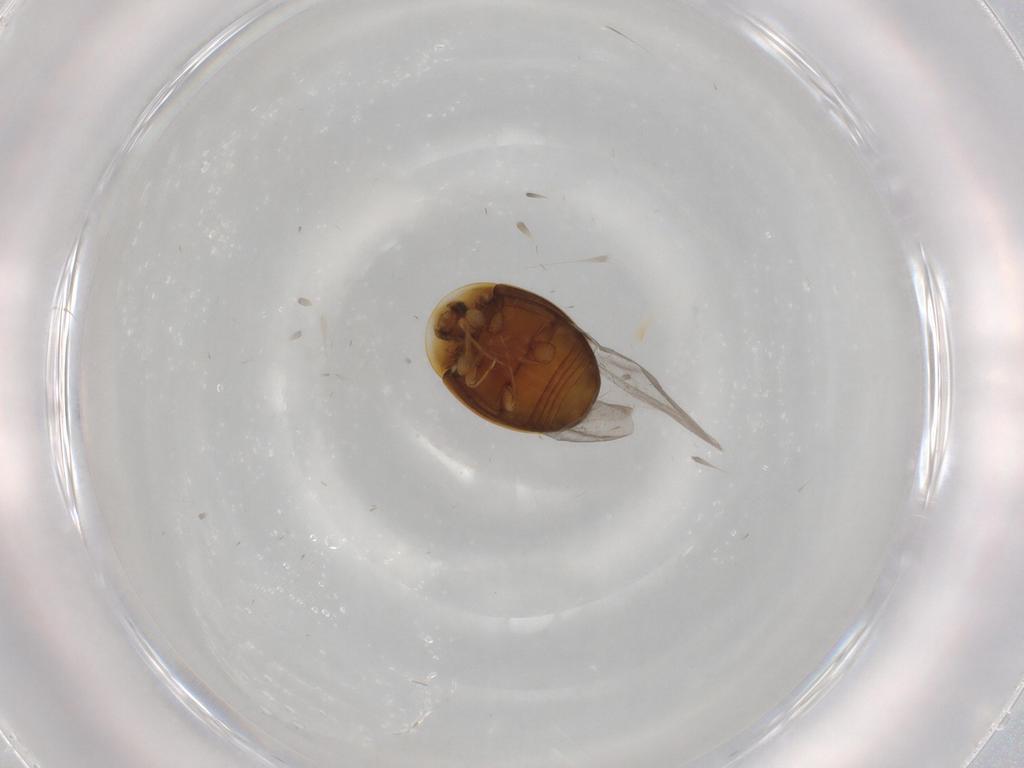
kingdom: Animalia
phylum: Arthropoda
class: Insecta
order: Coleoptera
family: Corylophidae
